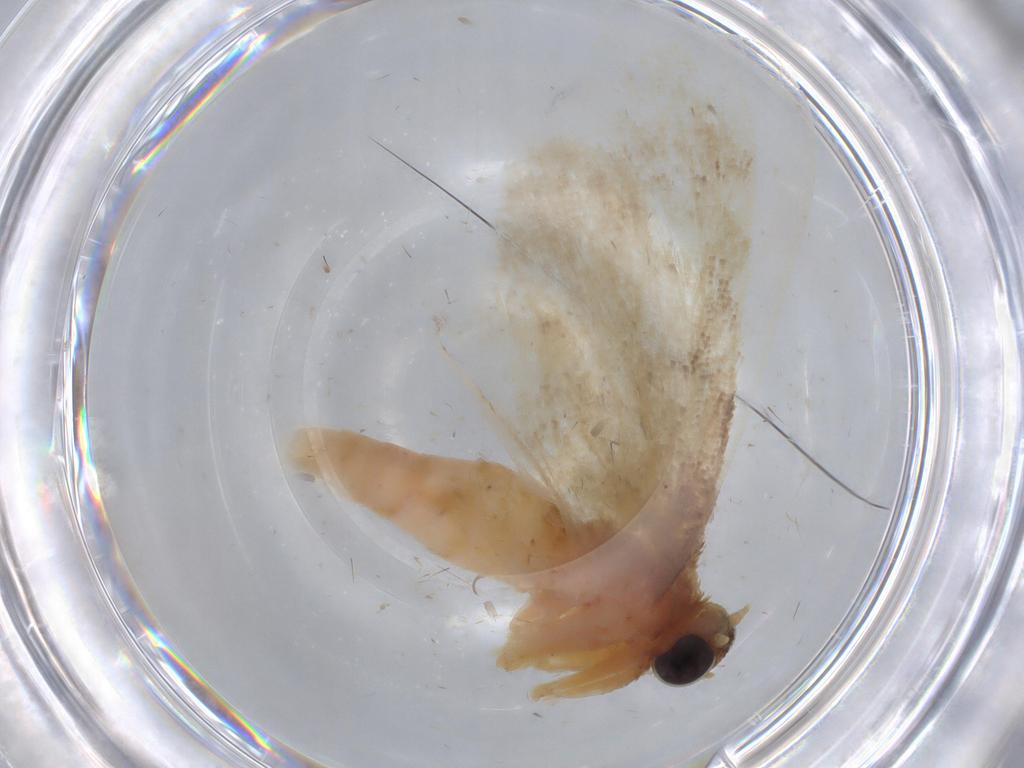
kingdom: Animalia
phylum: Arthropoda
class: Insecta
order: Lepidoptera
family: Geometridae
